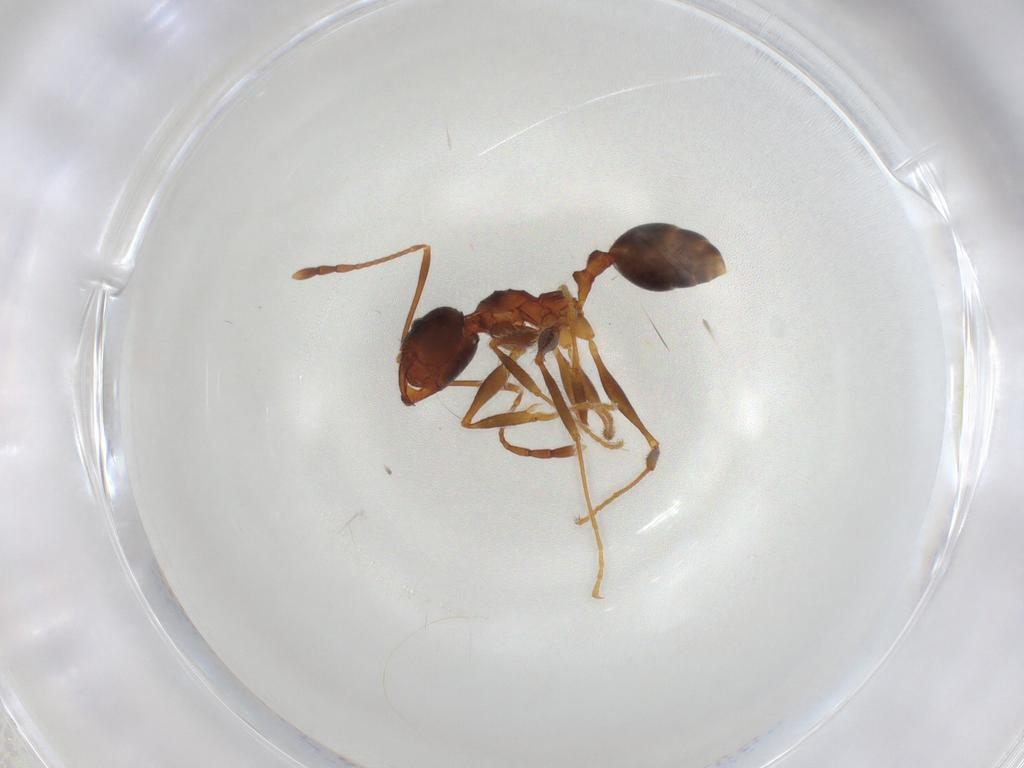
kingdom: Animalia
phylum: Arthropoda
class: Insecta
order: Hymenoptera
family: Formicidae
